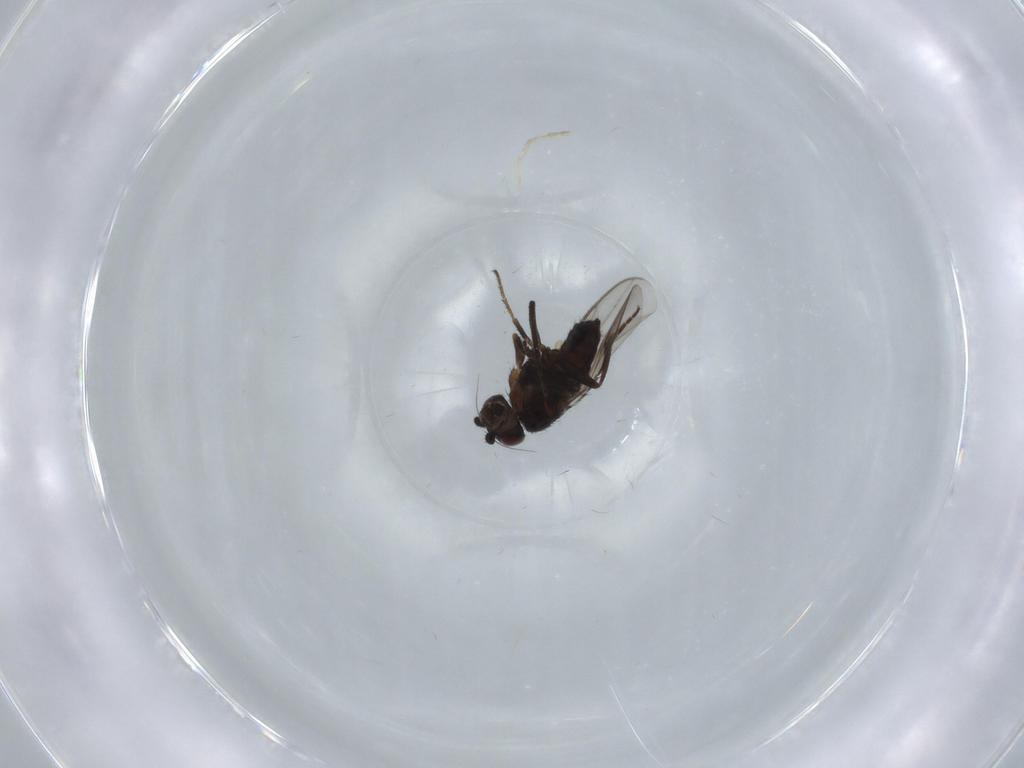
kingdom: Animalia
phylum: Arthropoda
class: Insecta
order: Diptera
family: Sphaeroceridae
